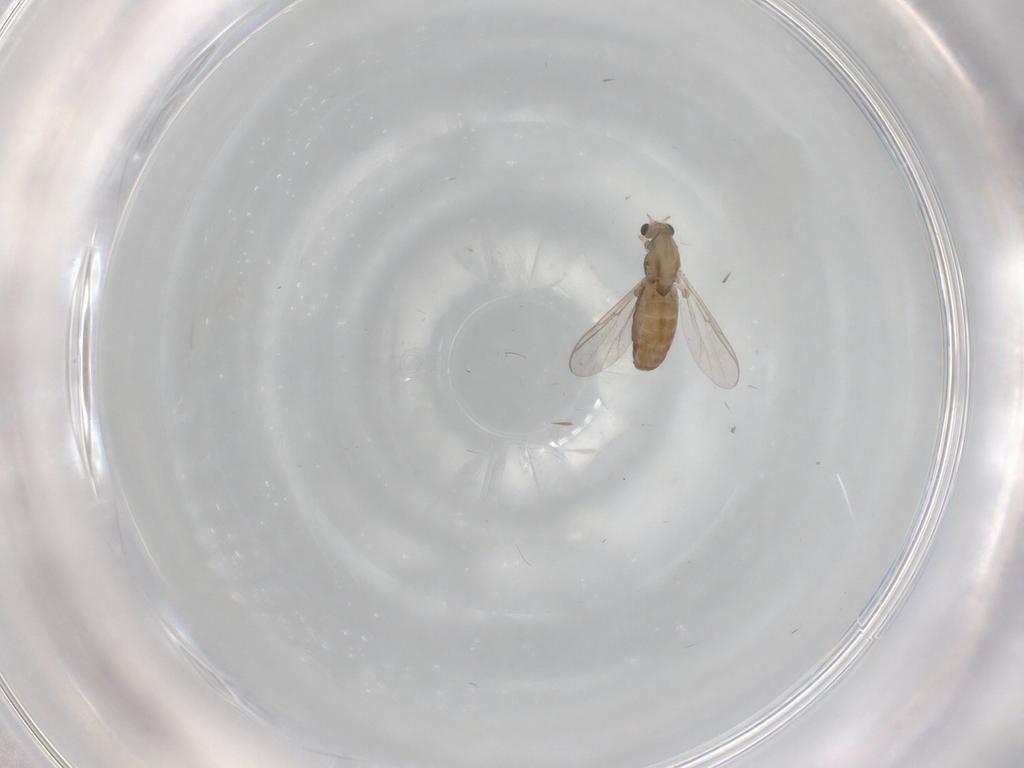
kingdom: Animalia
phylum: Arthropoda
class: Insecta
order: Diptera
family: Chironomidae
